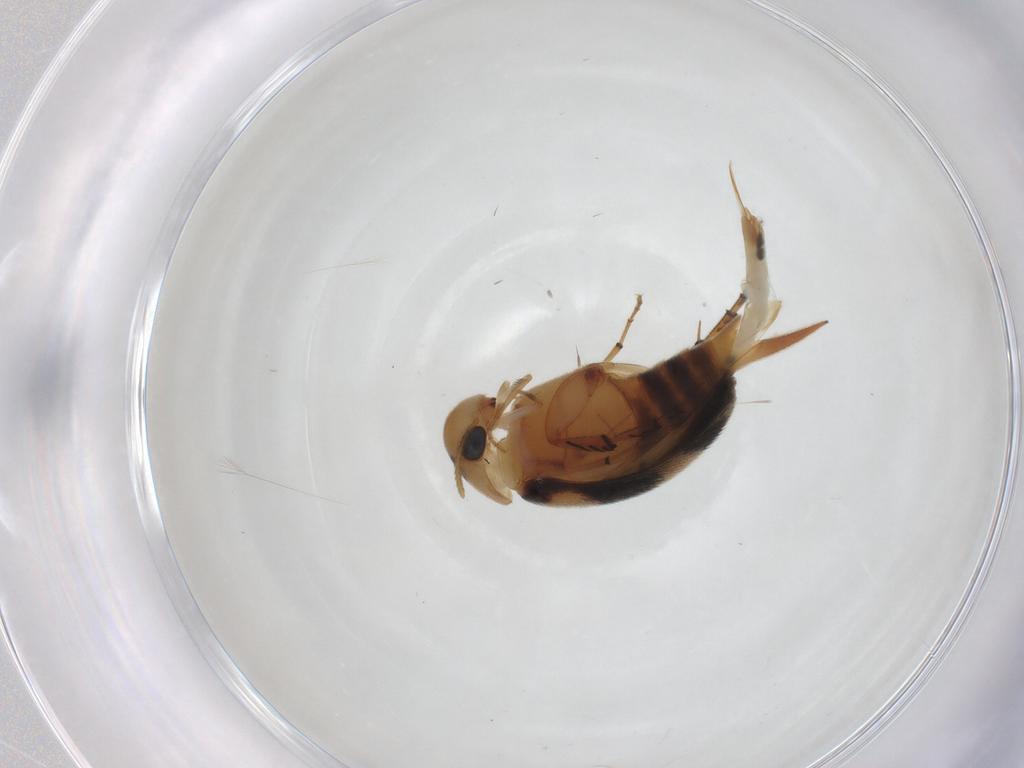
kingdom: Animalia
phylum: Arthropoda
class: Insecta
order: Coleoptera
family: Mordellidae
